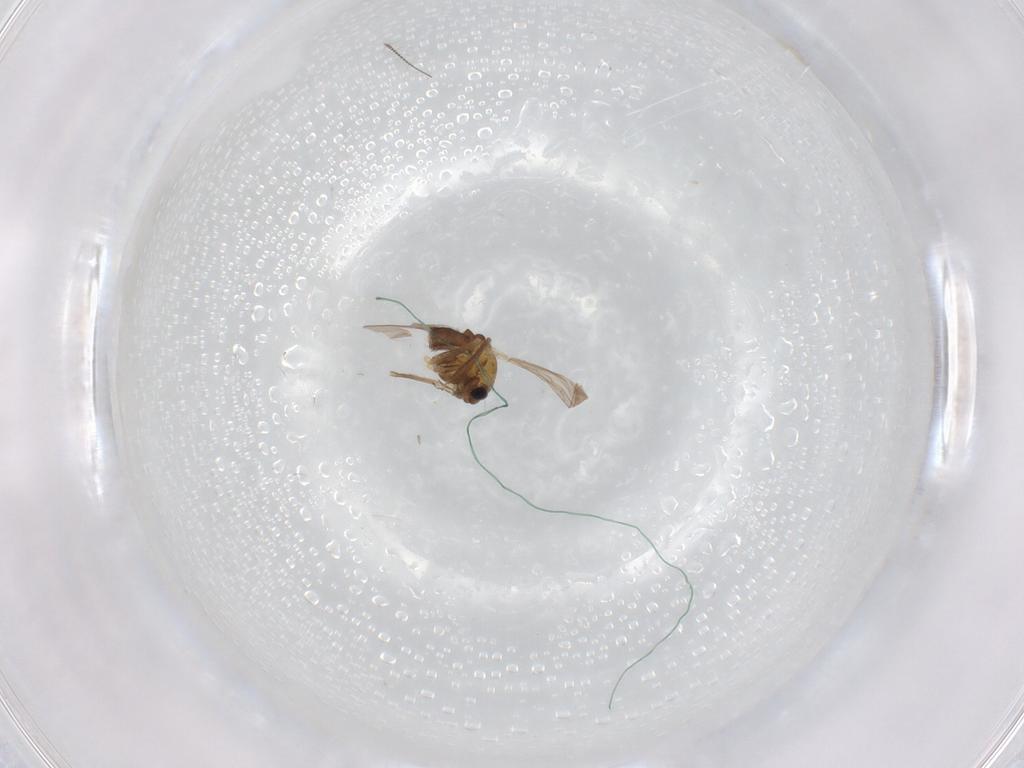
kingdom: Animalia
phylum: Arthropoda
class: Insecta
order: Diptera
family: Chironomidae
